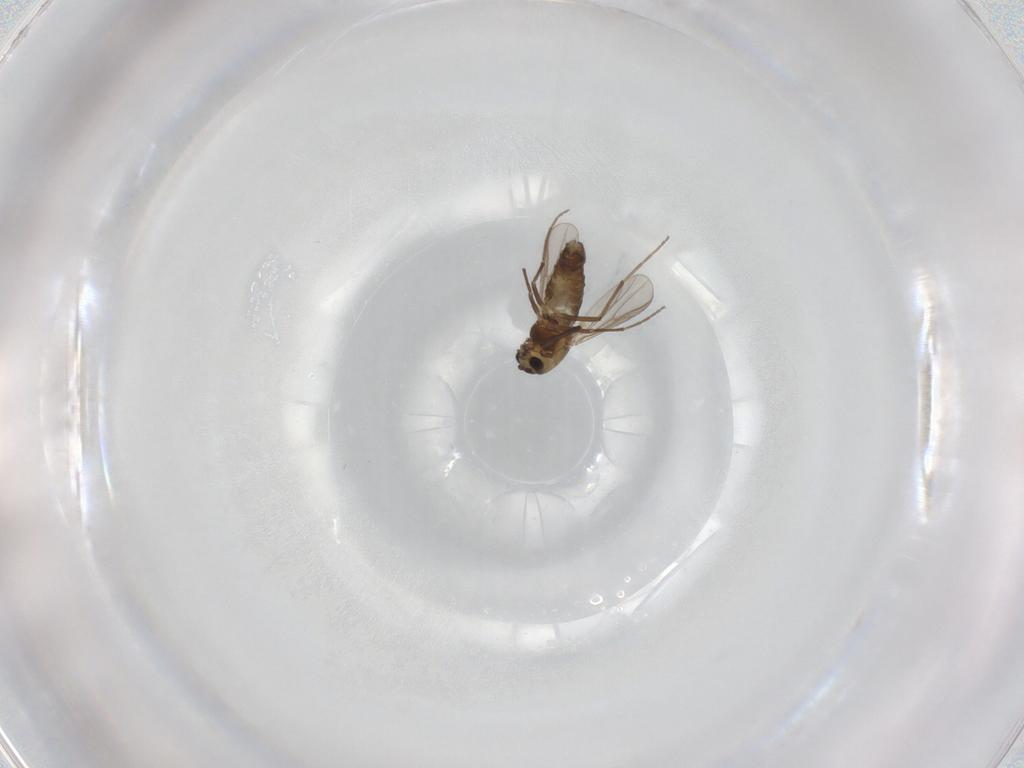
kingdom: Animalia
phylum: Arthropoda
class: Insecta
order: Diptera
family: Chironomidae
